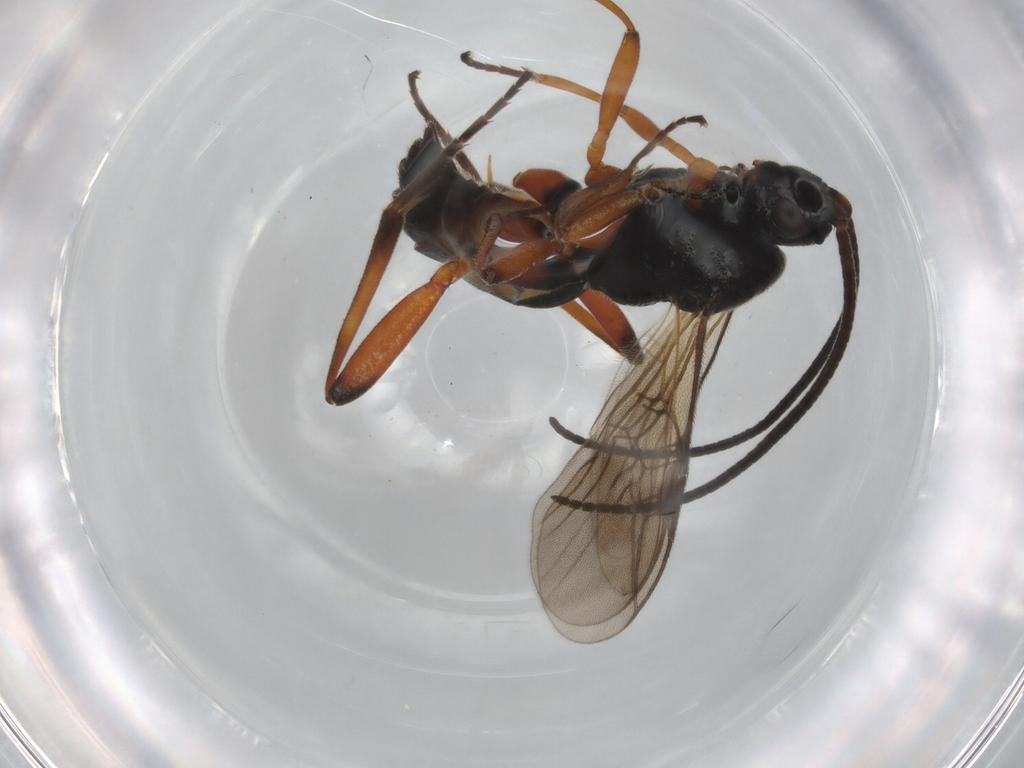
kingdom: Animalia
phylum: Arthropoda
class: Insecta
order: Hymenoptera
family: Braconidae
